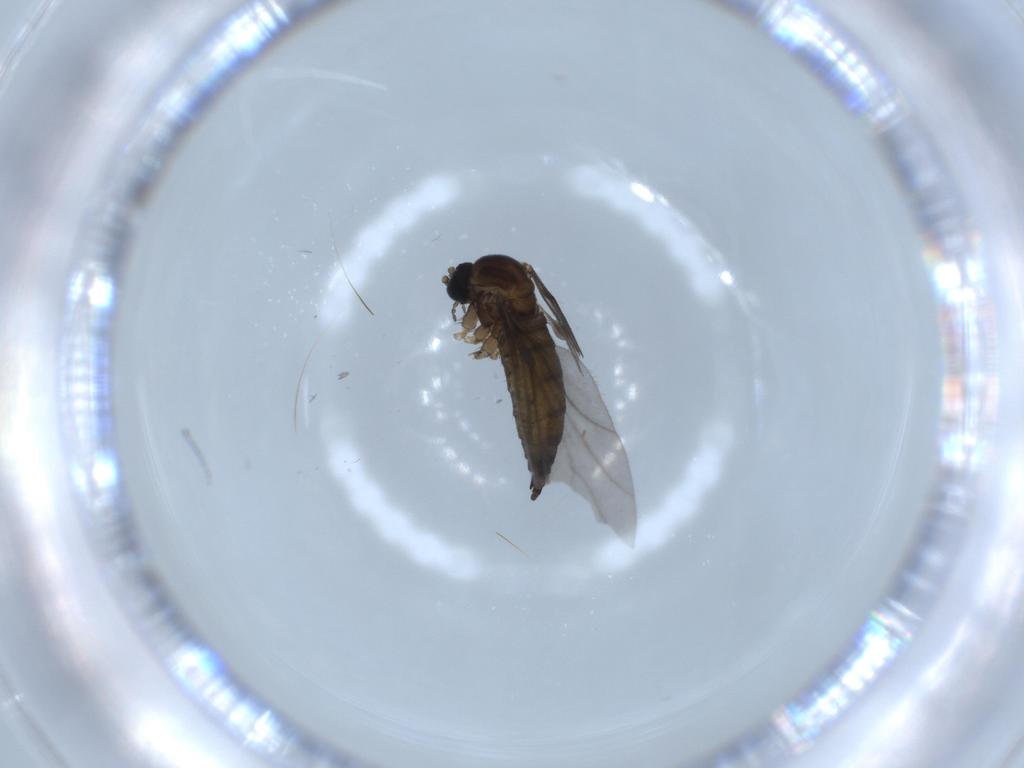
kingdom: Animalia
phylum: Arthropoda
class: Insecta
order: Diptera
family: Sciaridae
